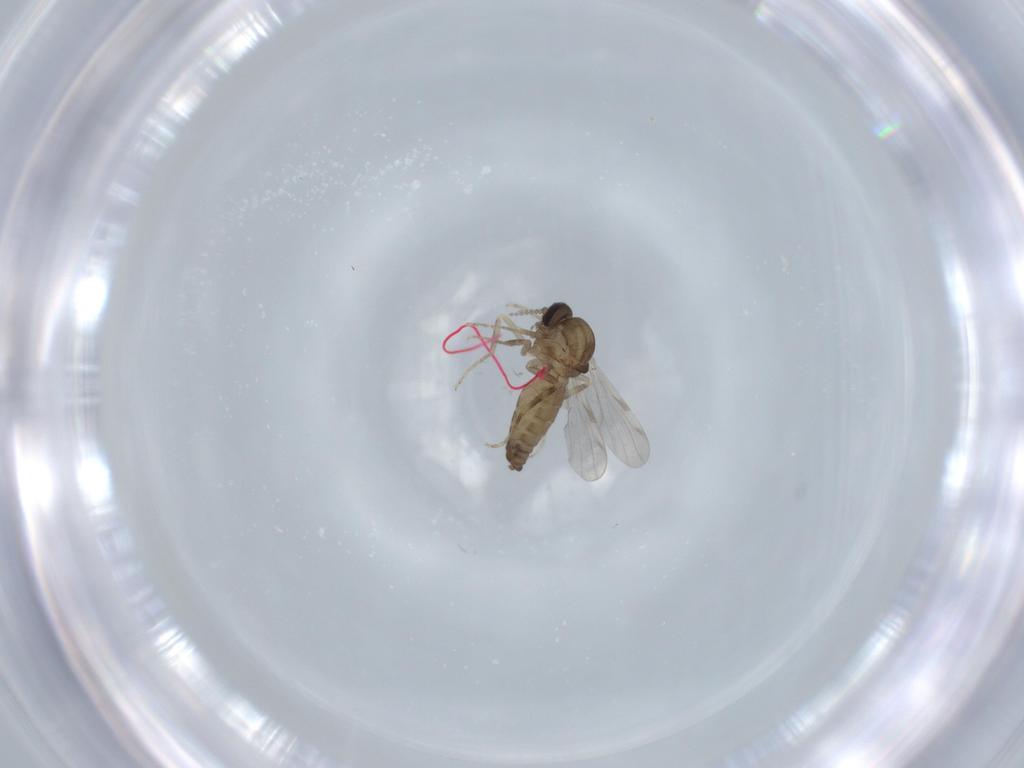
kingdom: Animalia
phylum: Arthropoda
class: Insecta
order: Diptera
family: Ceratopogonidae
